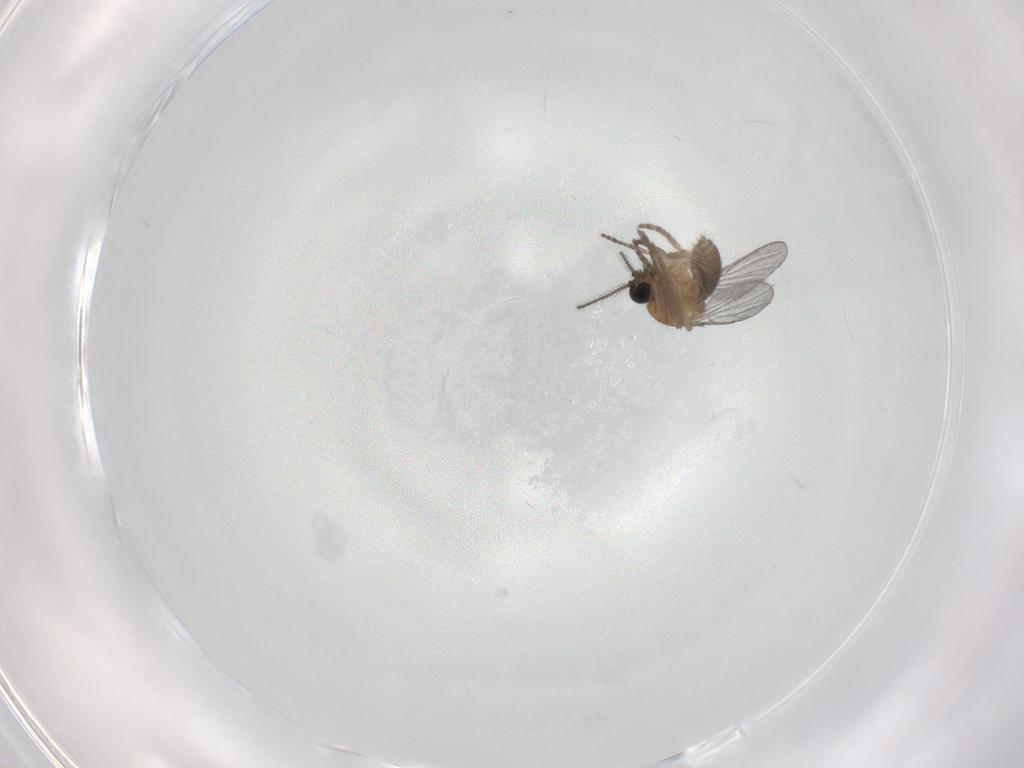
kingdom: Animalia
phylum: Arthropoda
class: Insecta
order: Diptera
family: Ceratopogonidae
